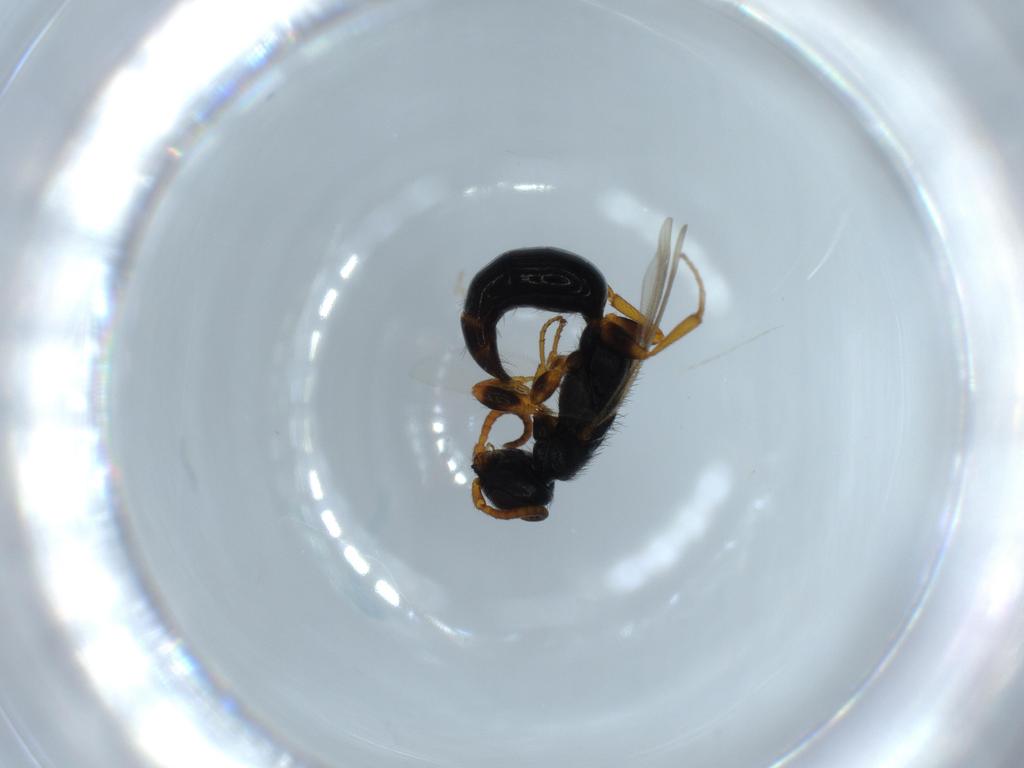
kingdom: Animalia
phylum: Arthropoda
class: Insecta
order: Hymenoptera
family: Bethylidae
